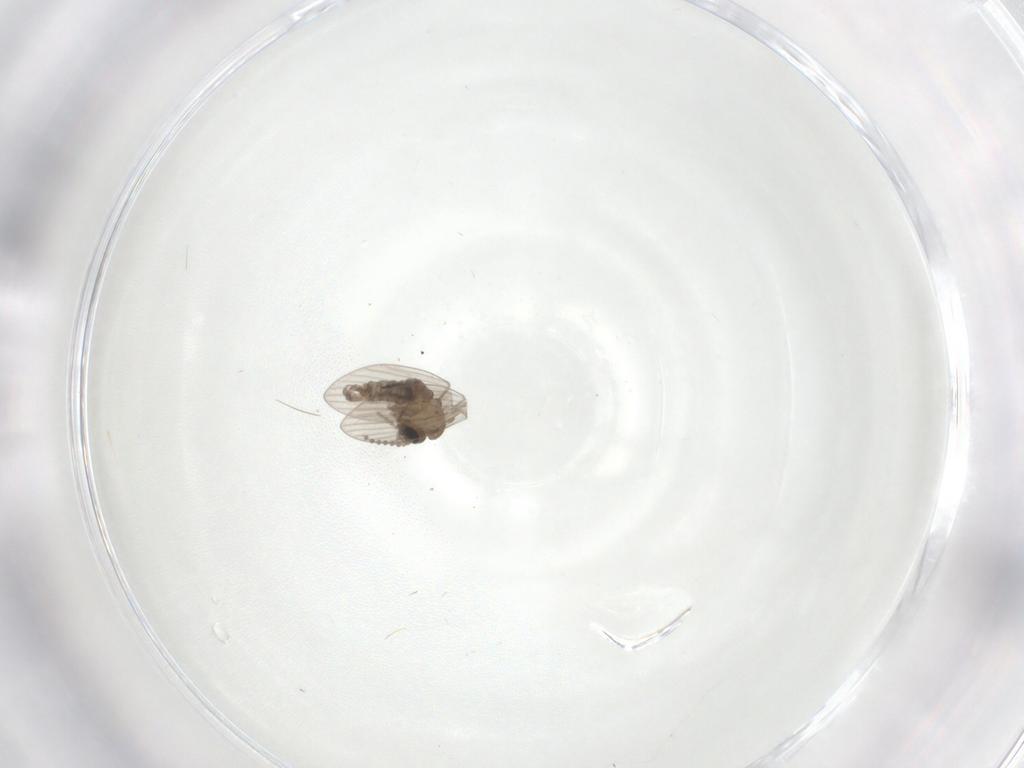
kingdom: Animalia
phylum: Arthropoda
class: Insecta
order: Diptera
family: Psychodidae
